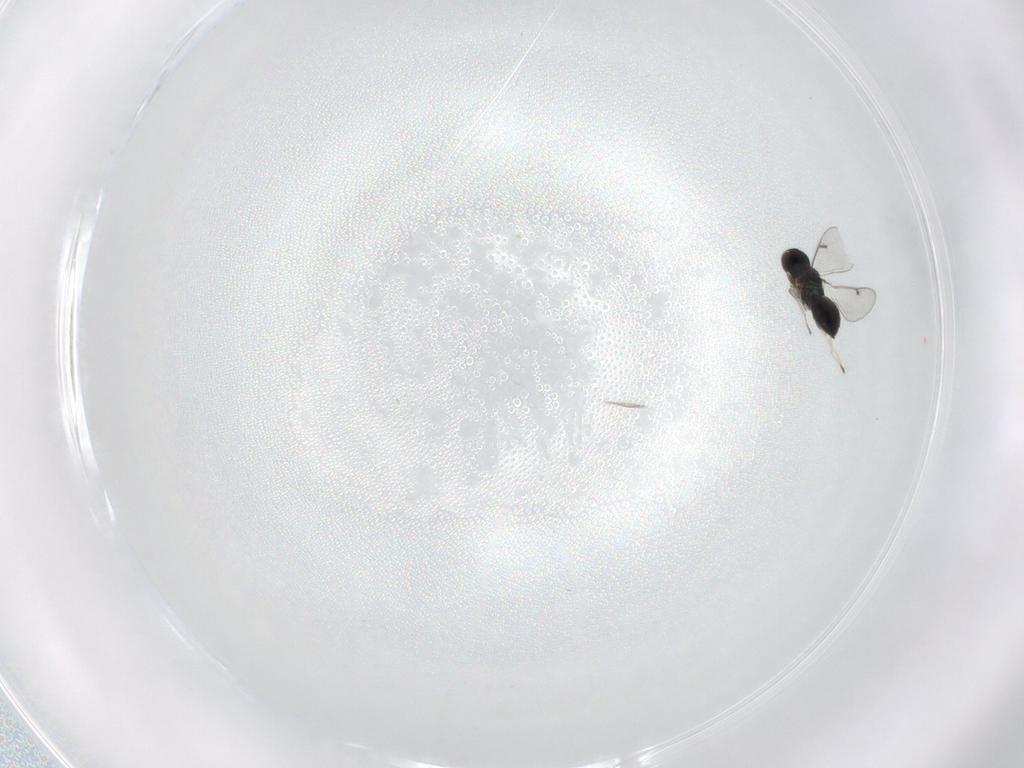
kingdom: Animalia
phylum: Arthropoda
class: Insecta
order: Hymenoptera
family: Eulophidae
